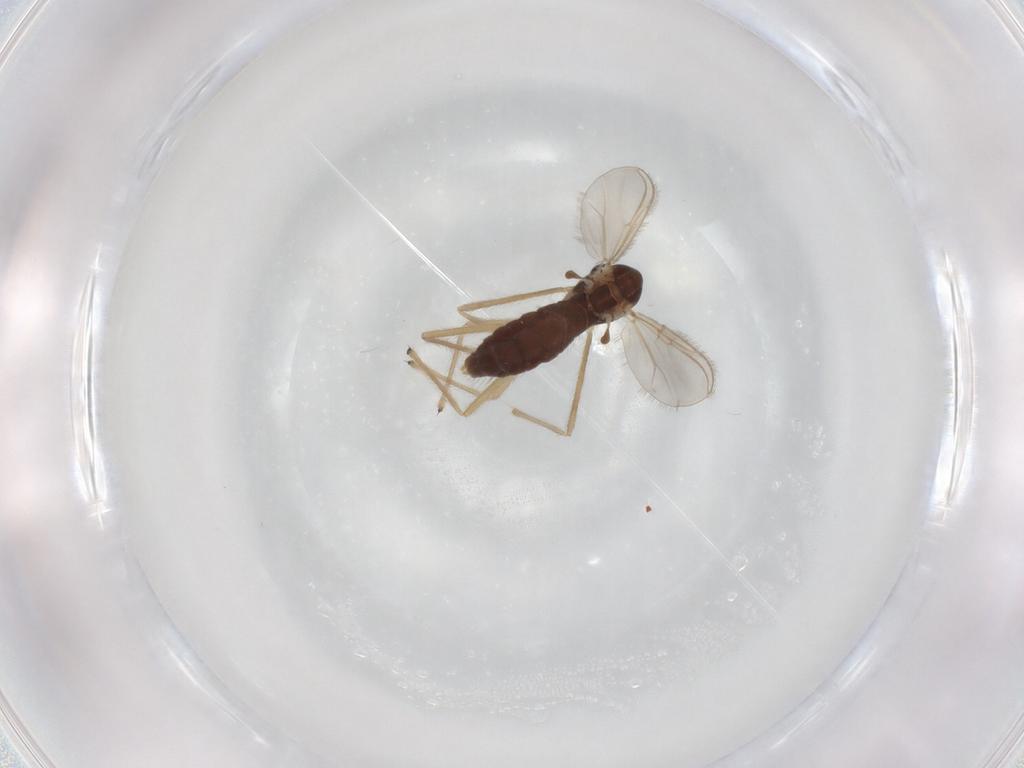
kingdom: Animalia
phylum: Arthropoda
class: Insecta
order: Diptera
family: Chironomidae
